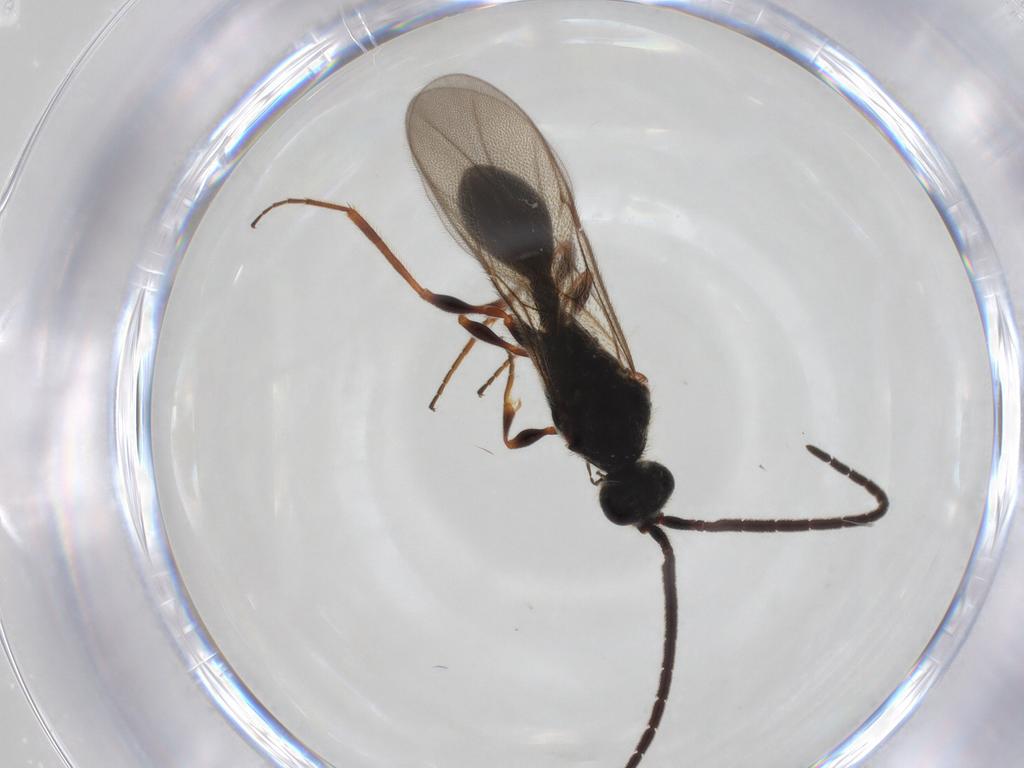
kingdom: Animalia
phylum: Arthropoda
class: Insecta
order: Hymenoptera
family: Diapriidae
